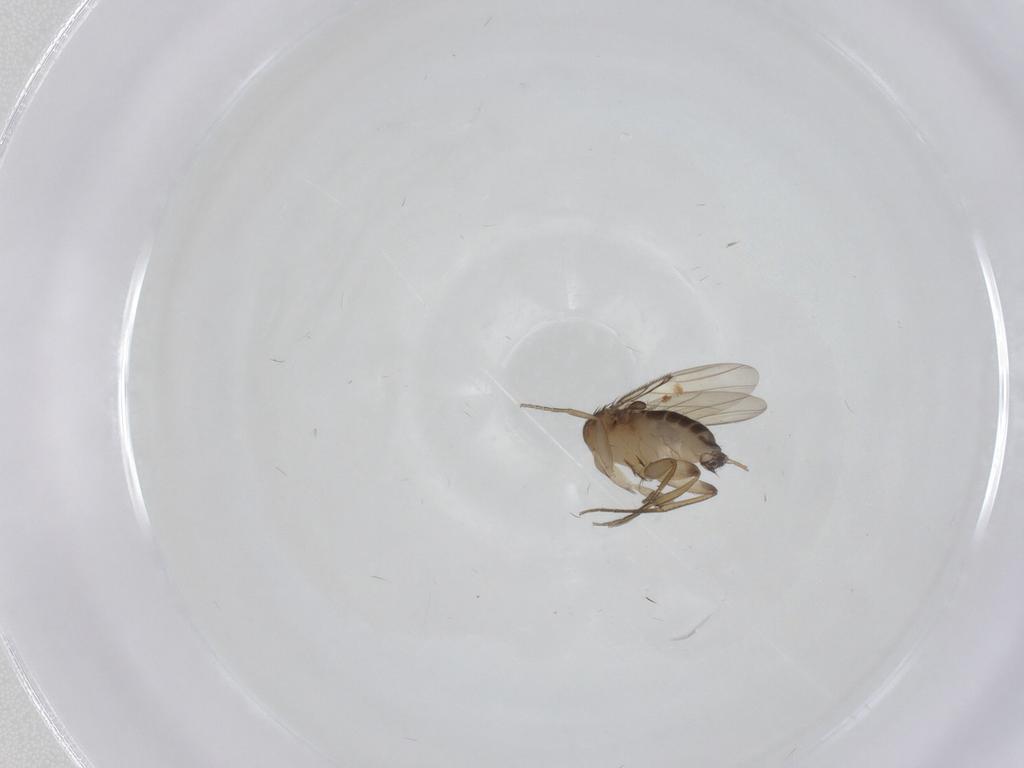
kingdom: Animalia
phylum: Arthropoda
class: Insecta
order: Diptera
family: Phoridae
